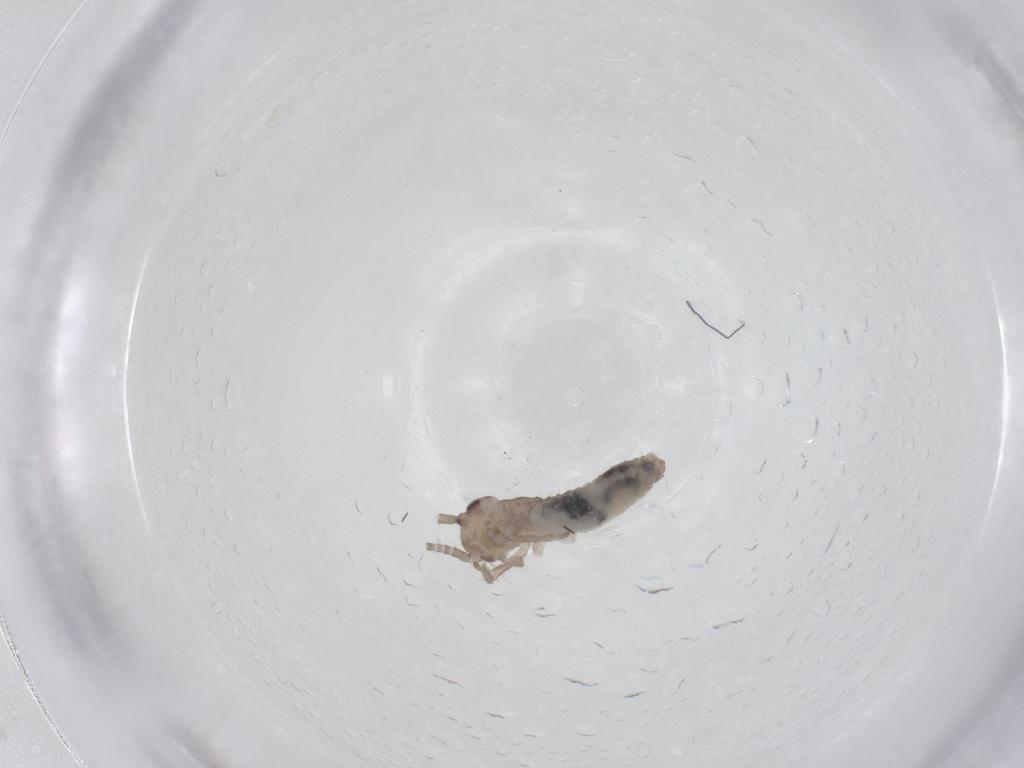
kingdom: Animalia
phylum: Arthropoda
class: Insecta
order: Orthoptera
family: Mogoplistidae
